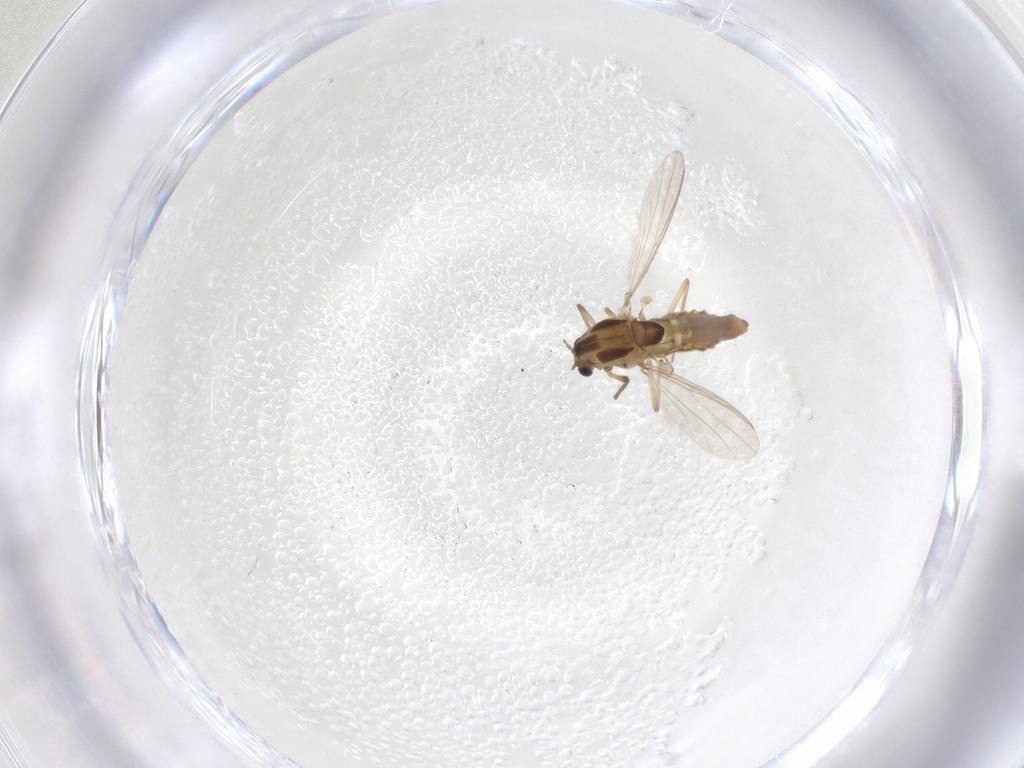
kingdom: Animalia
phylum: Arthropoda
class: Insecta
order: Diptera
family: Chironomidae
